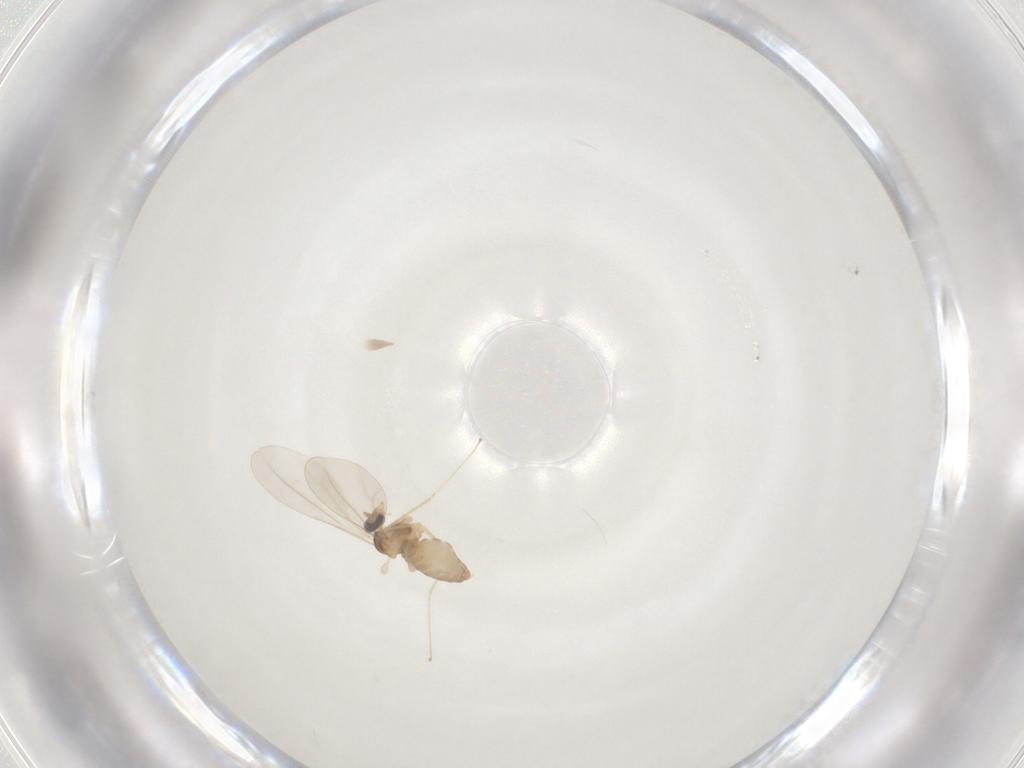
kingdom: Animalia
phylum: Arthropoda
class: Insecta
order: Diptera
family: Cecidomyiidae
